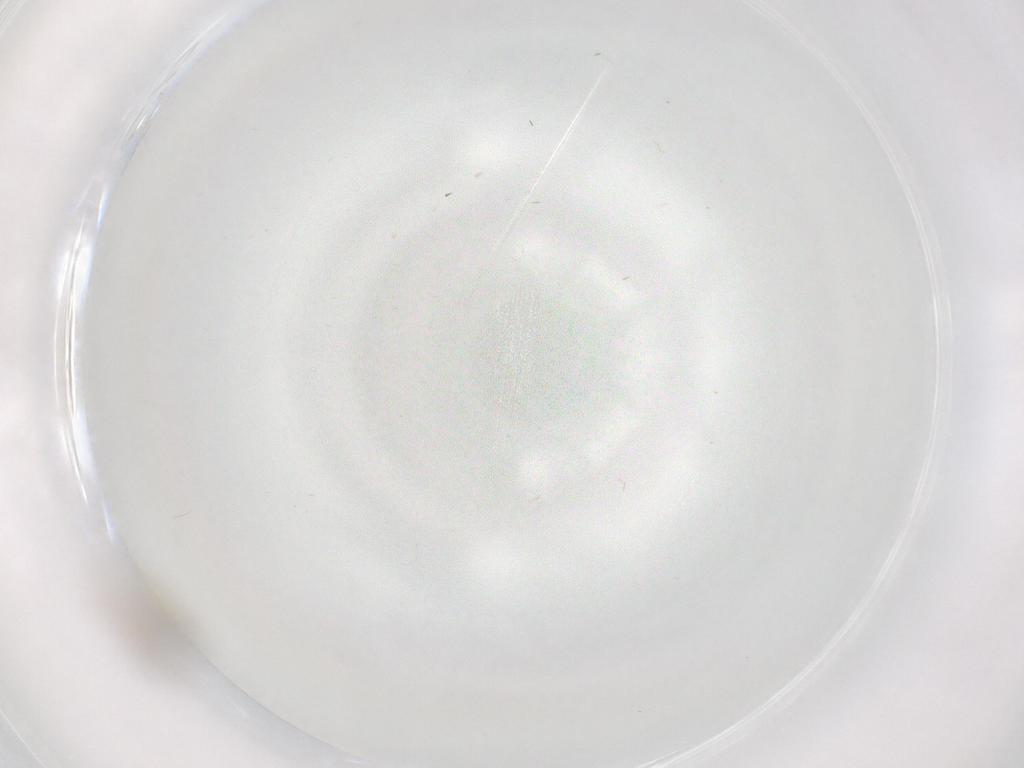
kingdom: Animalia
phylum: Arthropoda
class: Insecta
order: Diptera
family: Cecidomyiidae
